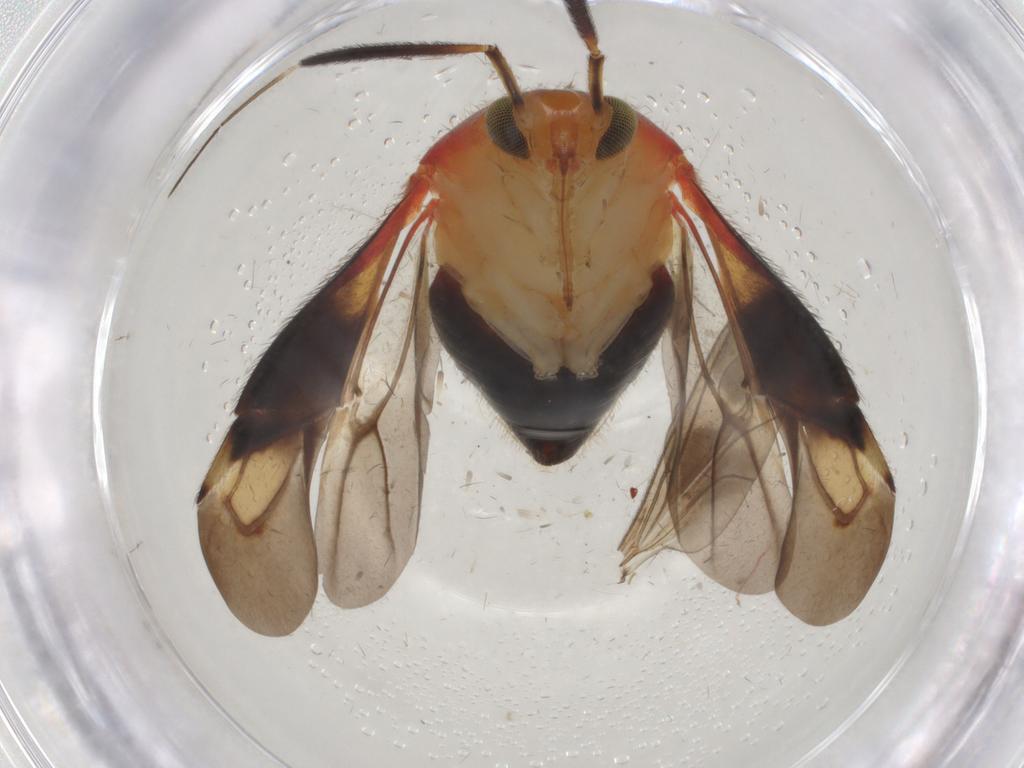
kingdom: Animalia
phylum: Arthropoda
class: Insecta
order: Hemiptera
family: Miridae
